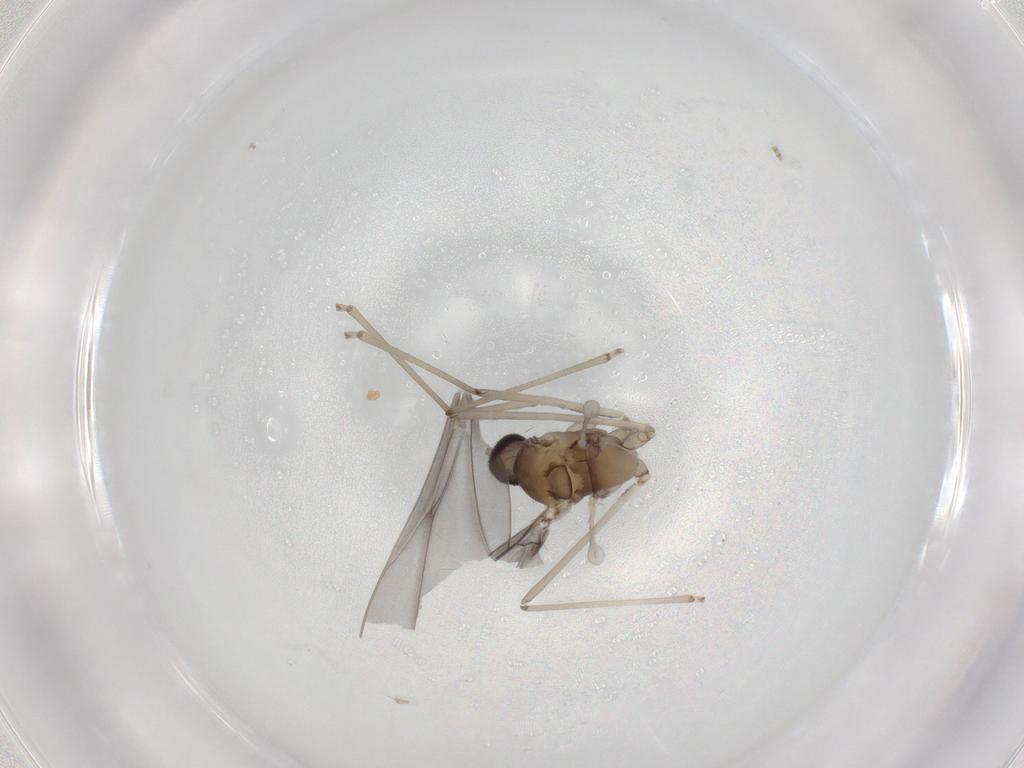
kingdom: Animalia
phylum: Arthropoda
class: Insecta
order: Diptera
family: Cecidomyiidae
